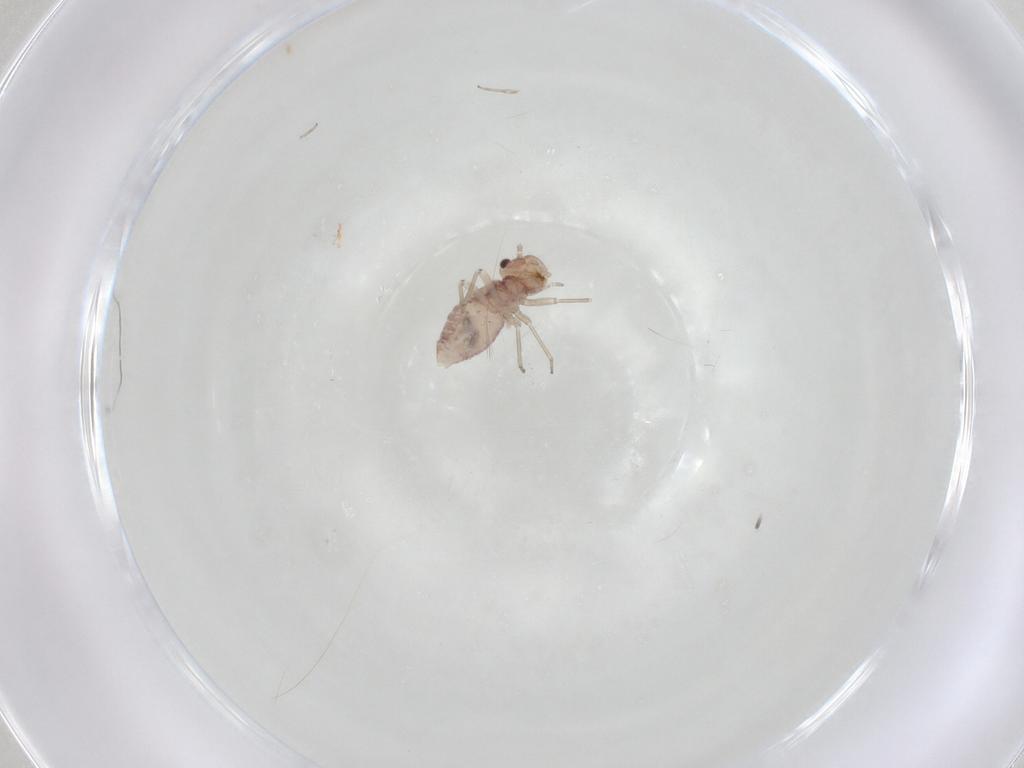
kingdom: Animalia
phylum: Arthropoda
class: Insecta
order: Psocodea
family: Lachesillidae
